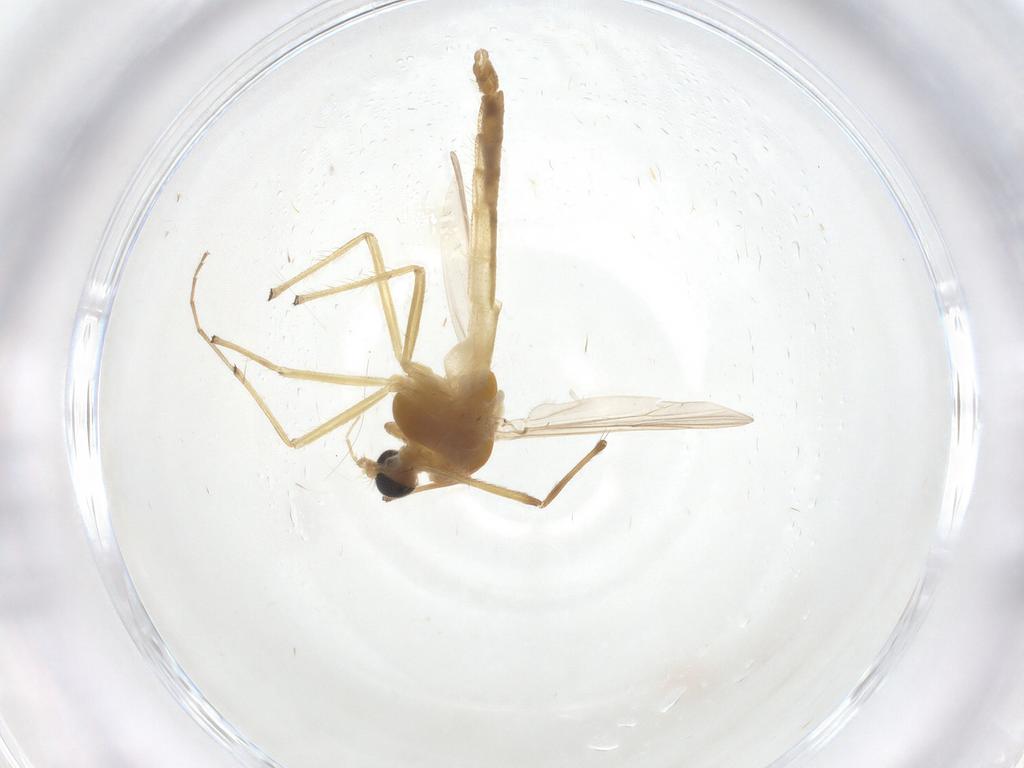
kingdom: Animalia
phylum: Arthropoda
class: Insecta
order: Diptera
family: Chironomidae
